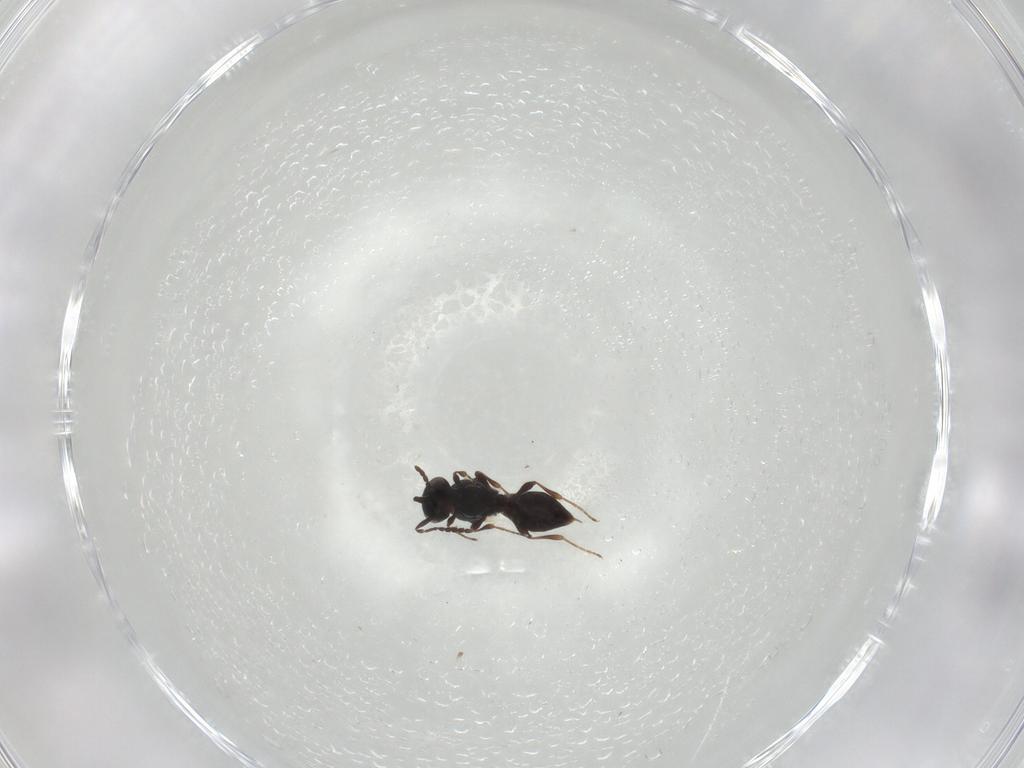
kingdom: Animalia
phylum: Arthropoda
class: Insecta
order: Hymenoptera
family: Platygastridae
